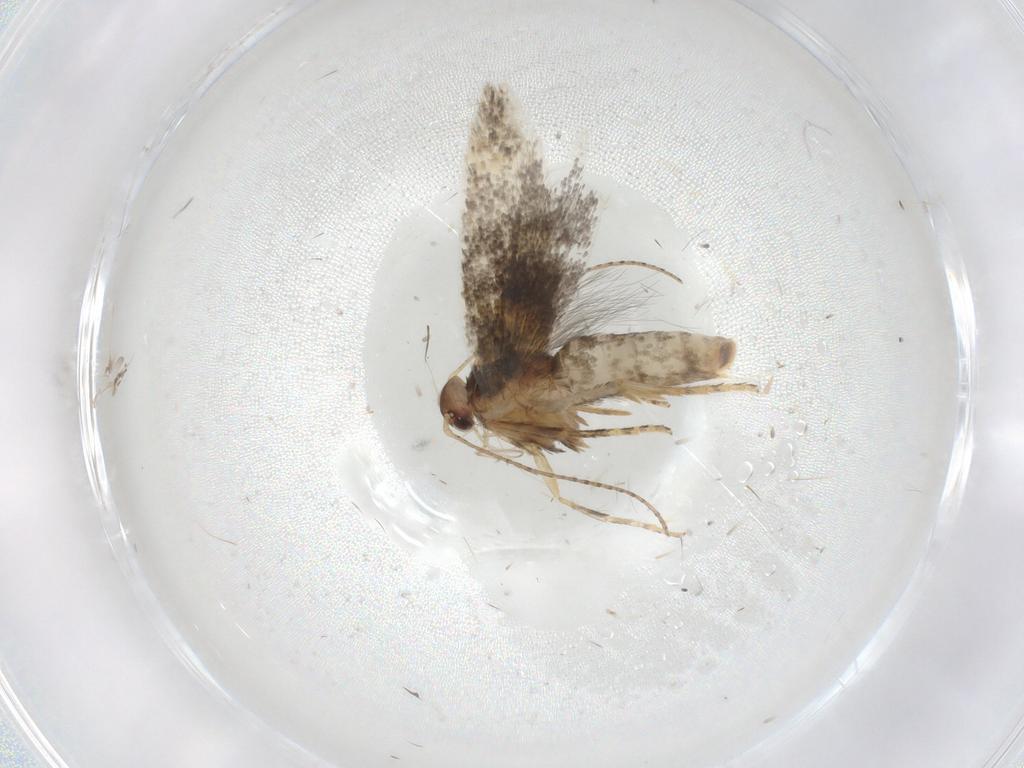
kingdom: Animalia
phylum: Arthropoda
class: Insecta
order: Lepidoptera
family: Gelechiidae
